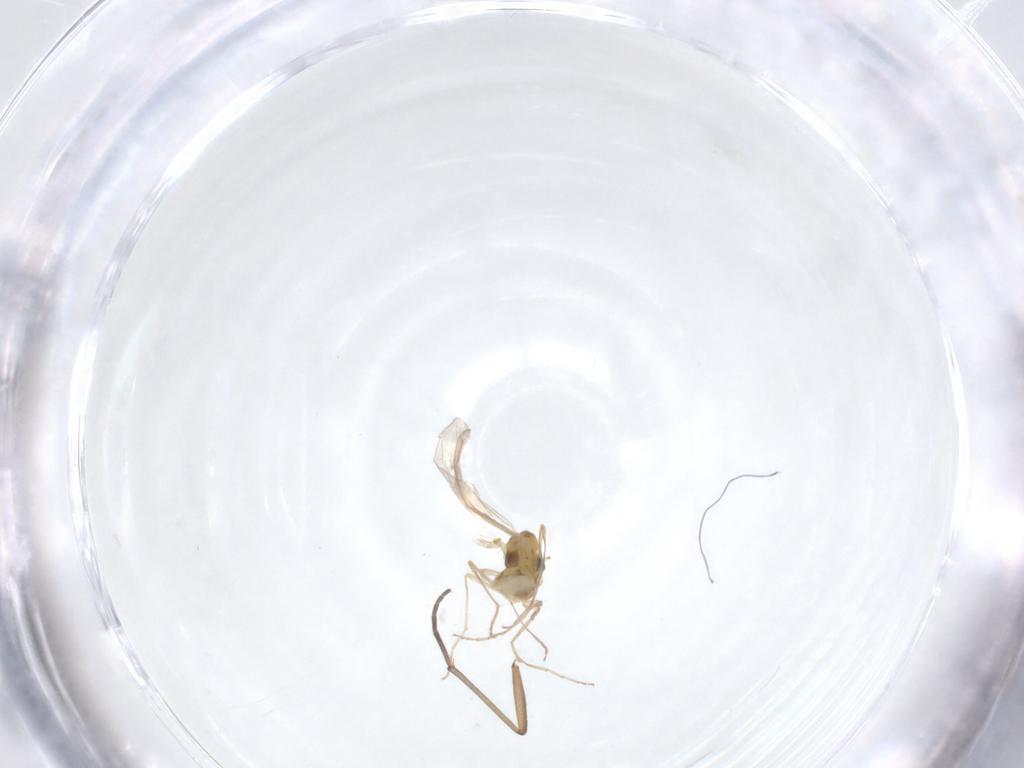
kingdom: Animalia
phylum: Arthropoda
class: Insecta
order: Diptera
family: Chironomidae
